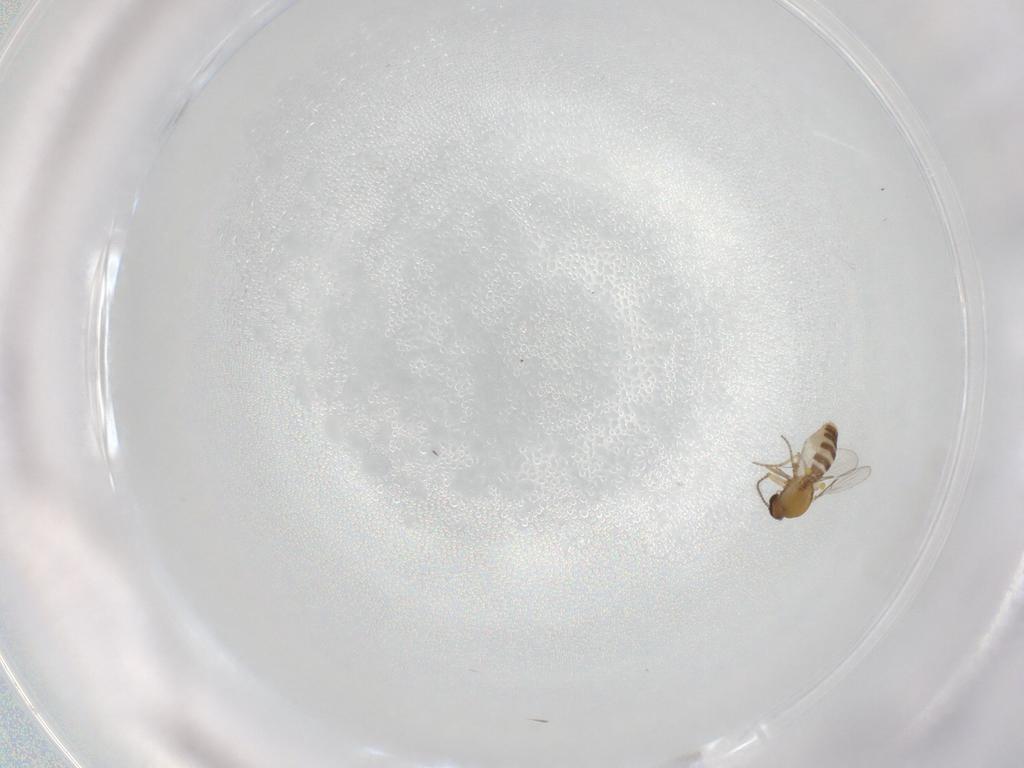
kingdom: Animalia
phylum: Arthropoda
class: Insecta
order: Diptera
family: Ceratopogonidae
